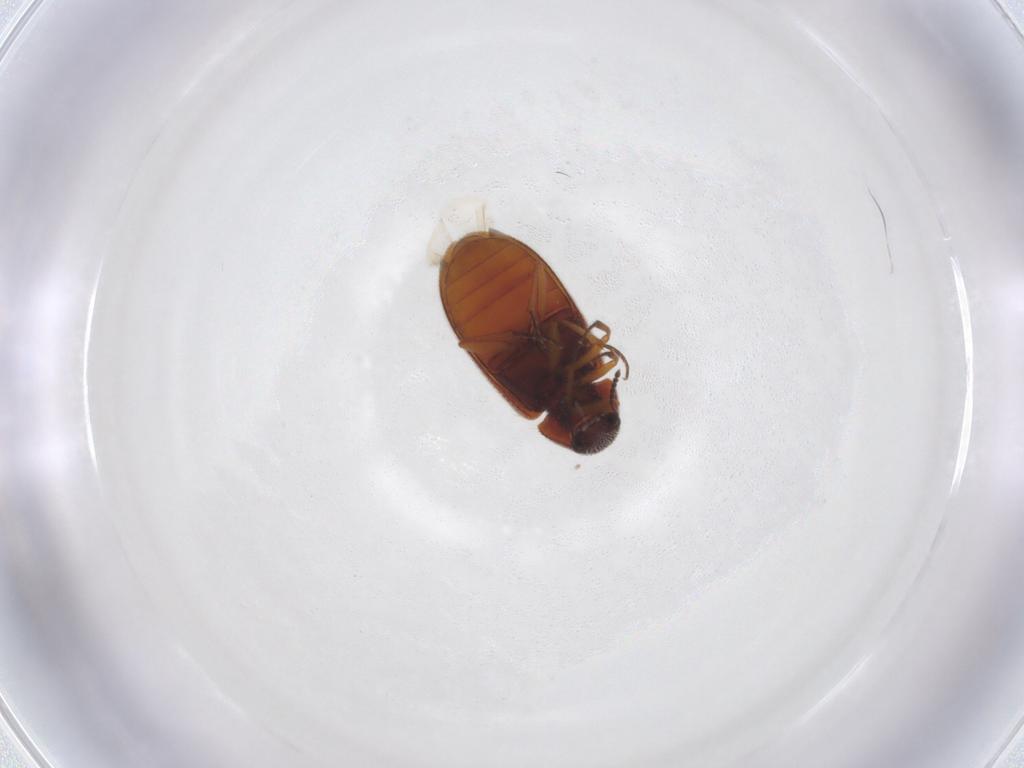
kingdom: Animalia
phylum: Arthropoda
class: Insecta
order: Coleoptera
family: Rhadalidae
